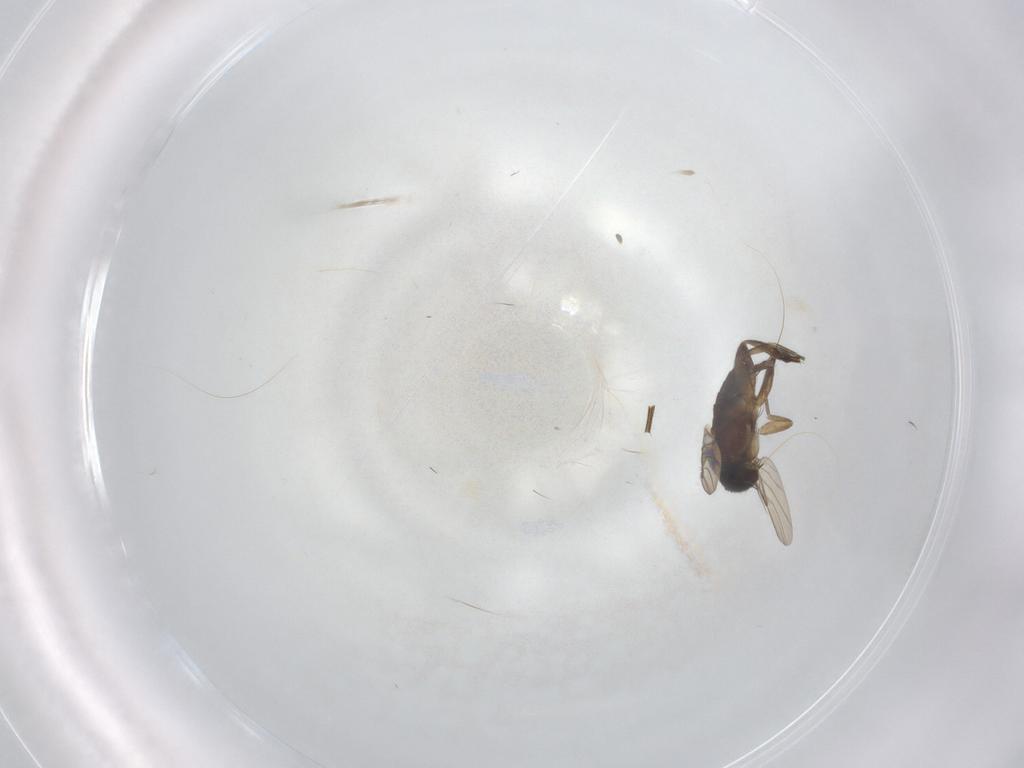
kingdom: Animalia
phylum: Arthropoda
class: Insecta
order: Diptera
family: Phoridae
